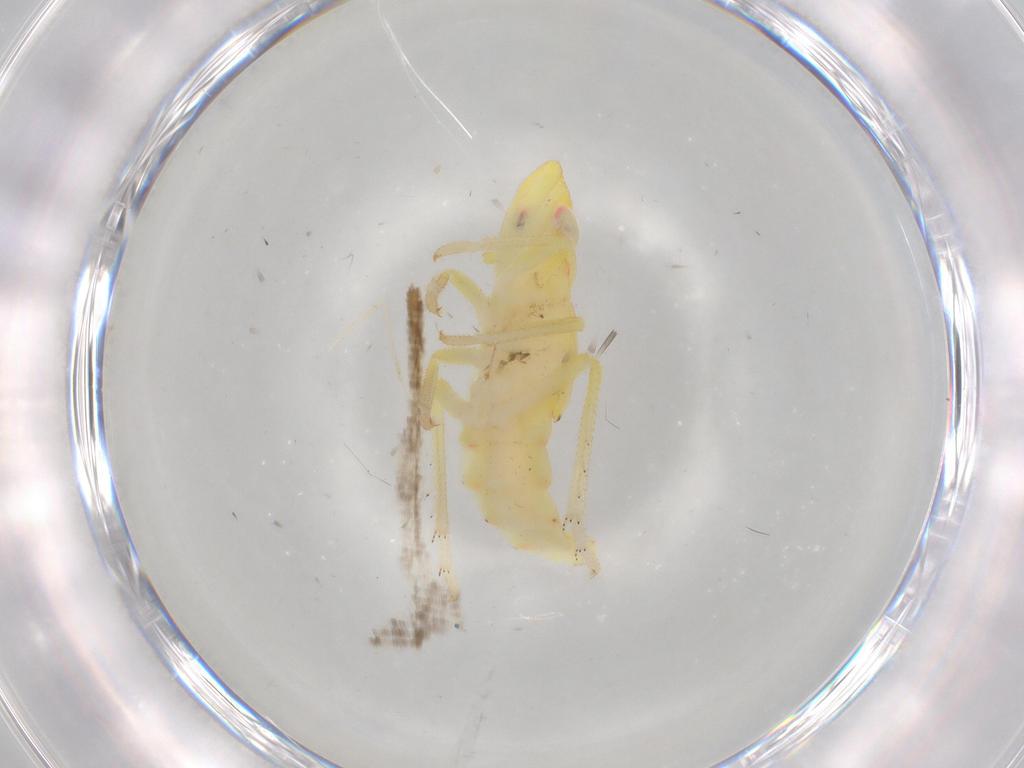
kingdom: Animalia
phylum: Arthropoda
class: Insecta
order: Hemiptera
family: Tropiduchidae
